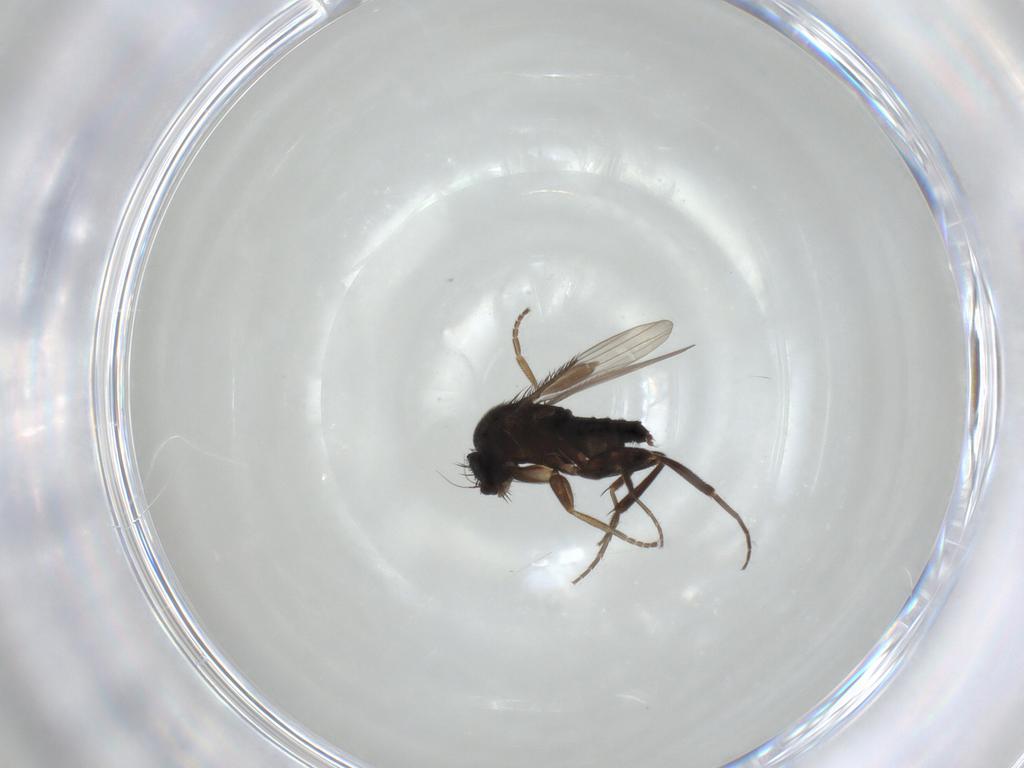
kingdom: Animalia
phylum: Arthropoda
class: Insecta
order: Diptera
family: Phoridae
